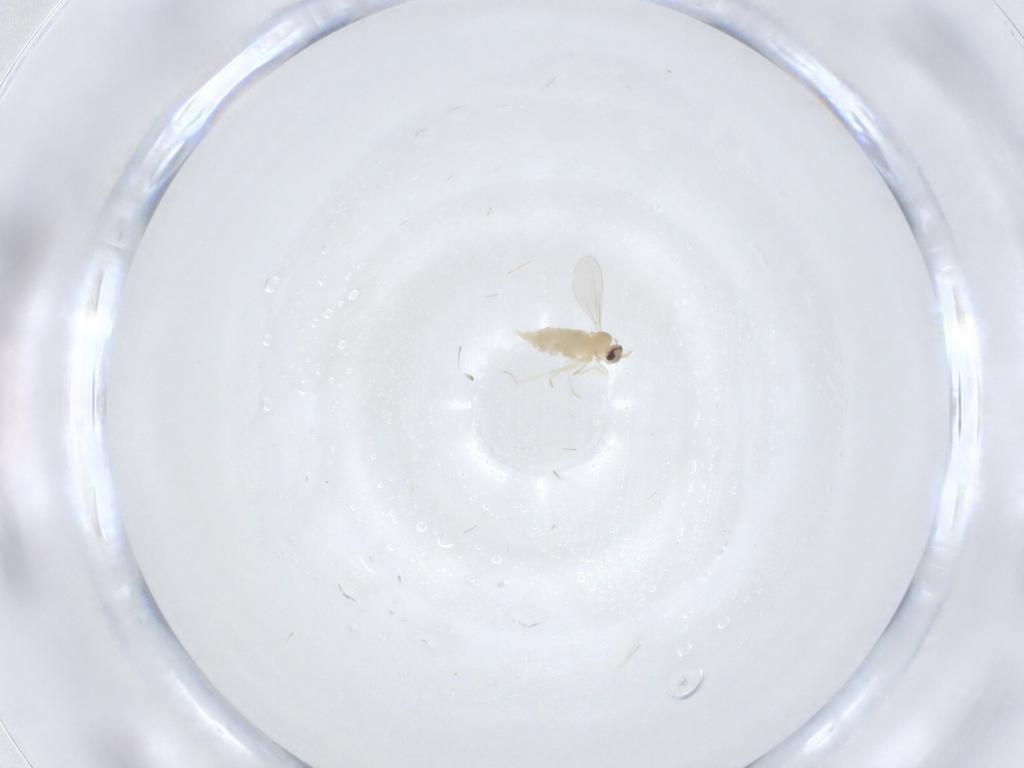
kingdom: Animalia
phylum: Arthropoda
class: Insecta
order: Diptera
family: Cecidomyiidae
